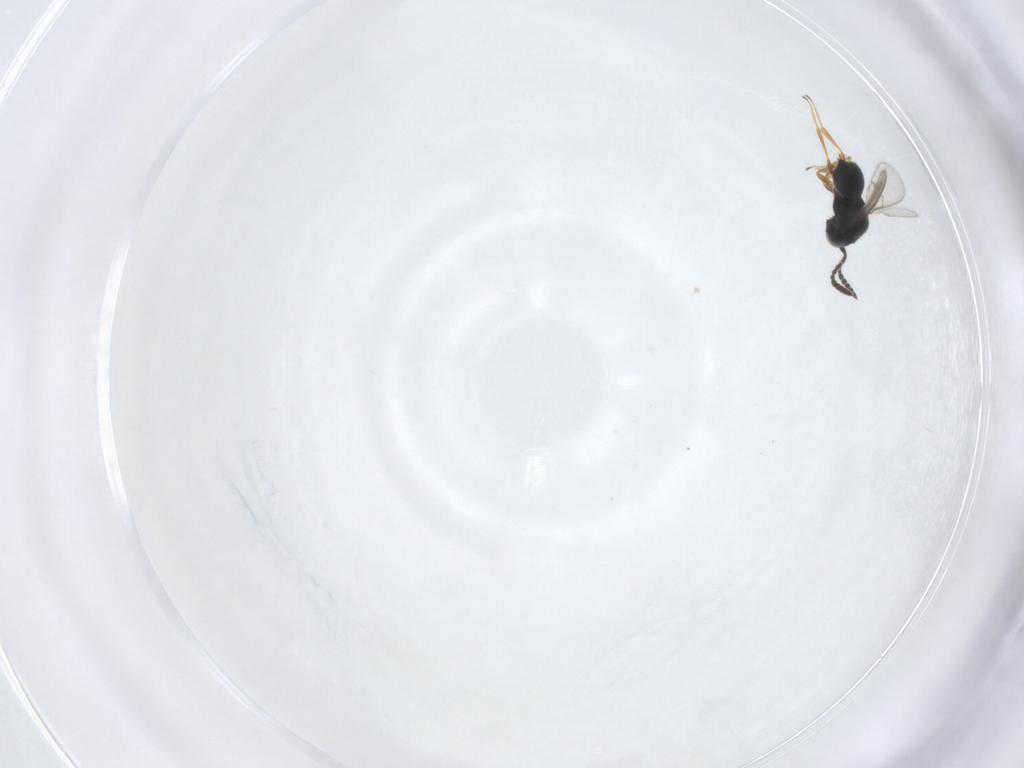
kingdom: Animalia
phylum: Arthropoda
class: Insecta
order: Hymenoptera
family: Scelionidae
